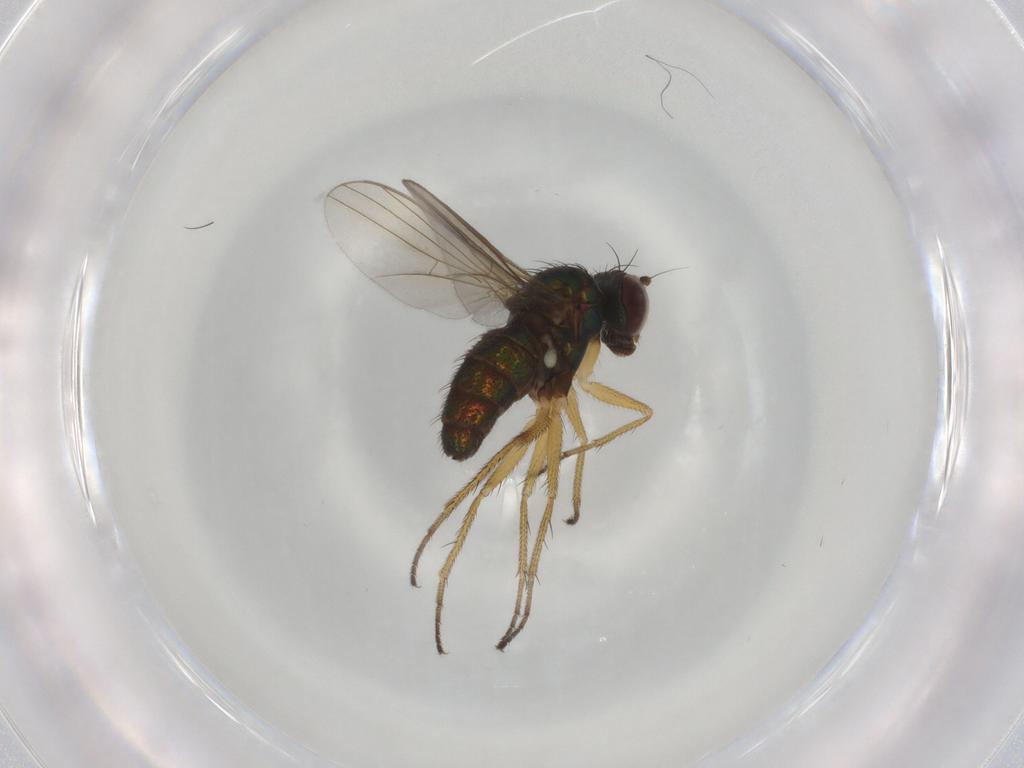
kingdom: Animalia
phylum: Arthropoda
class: Insecta
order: Diptera
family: Dolichopodidae
